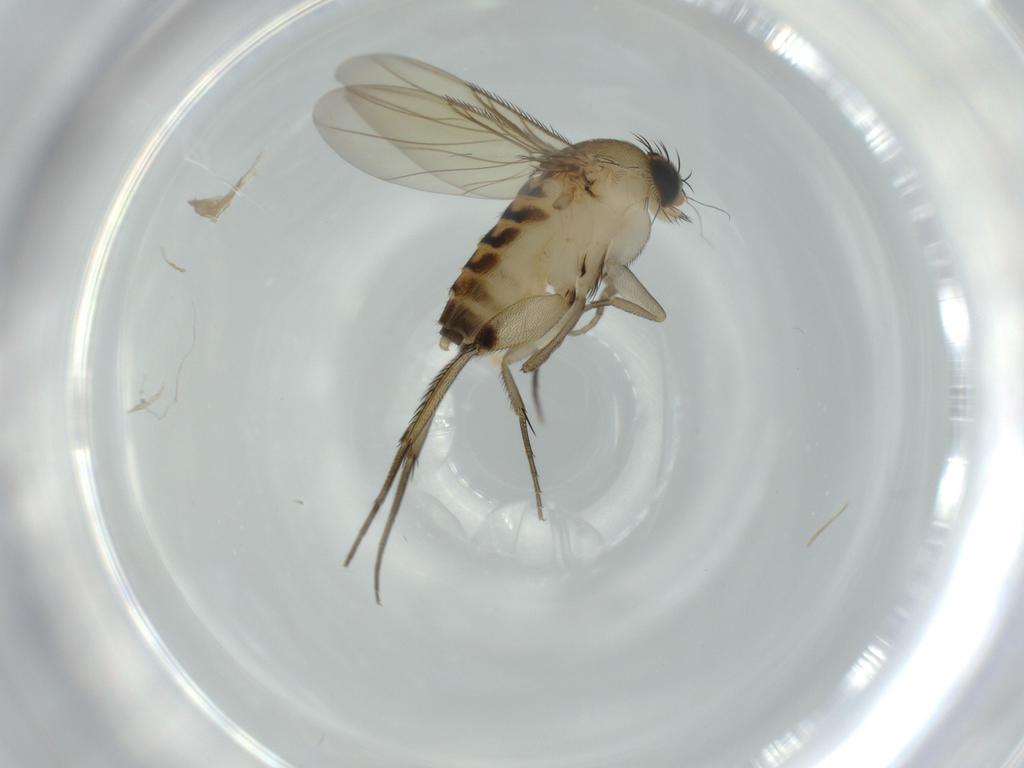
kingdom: Animalia
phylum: Arthropoda
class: Insecta
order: Diptera
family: Phoridae
